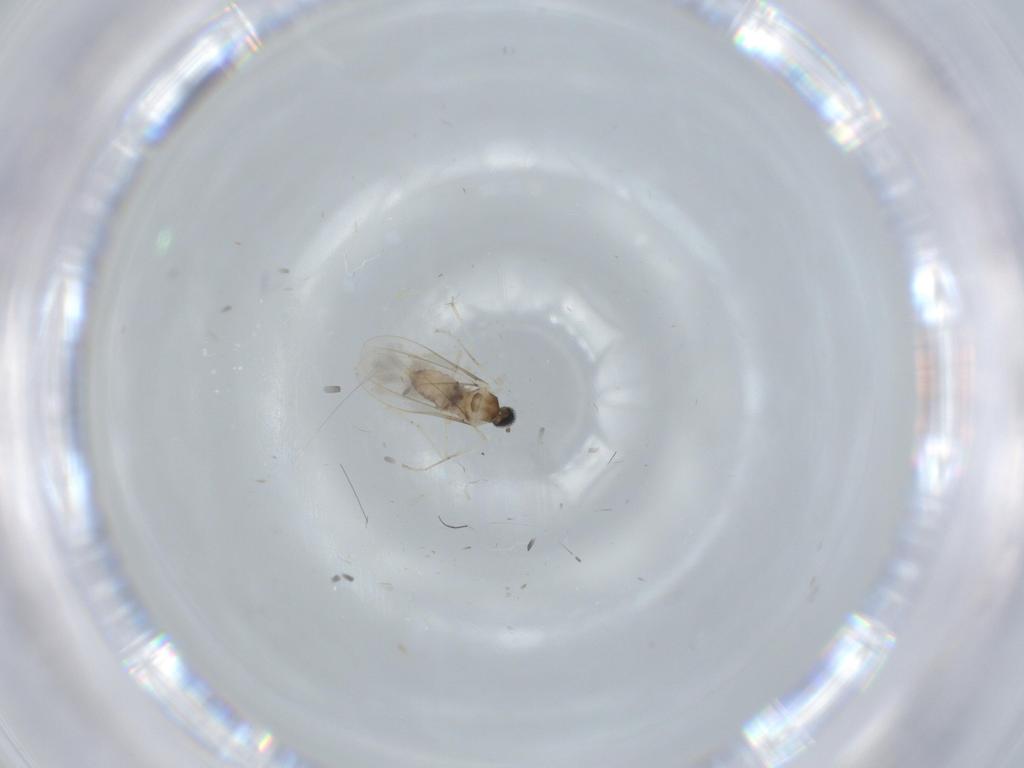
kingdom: Animalia
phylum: Arthropoda
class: Insecta
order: Diptera
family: Cecidomyiidae
